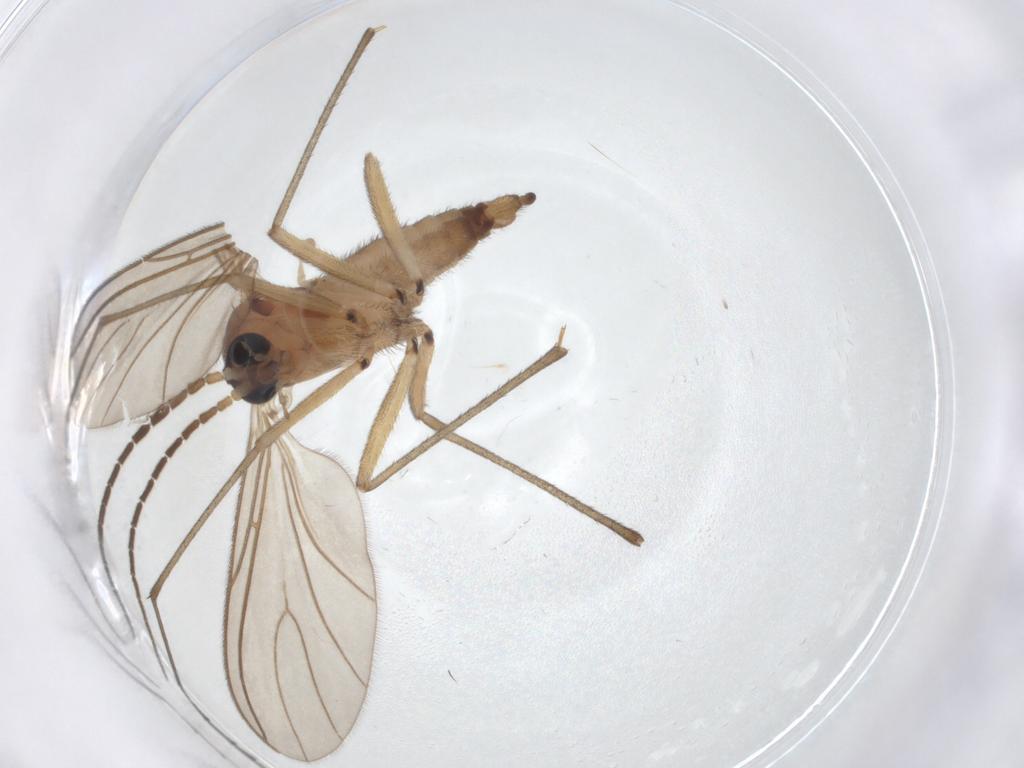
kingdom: Animalia
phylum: Arthropoda
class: Insecta
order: Diptera
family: Sciaridae
